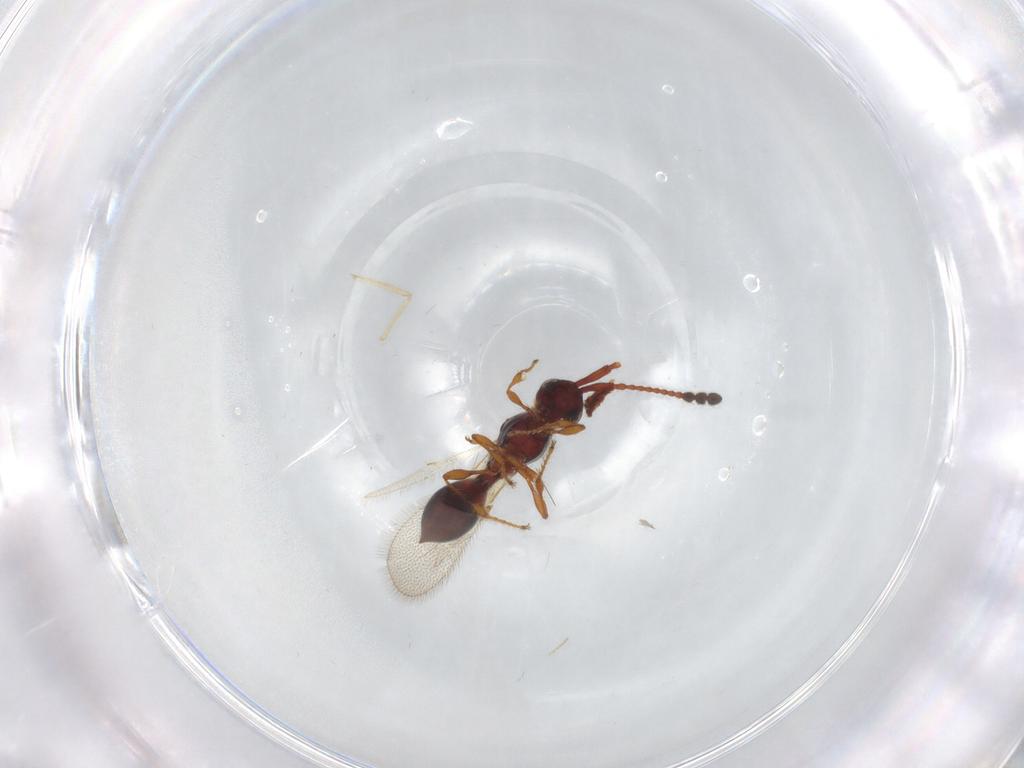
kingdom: Animalia
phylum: Arthropoda
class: Insecta
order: Hymenoptera
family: Diapriidae
